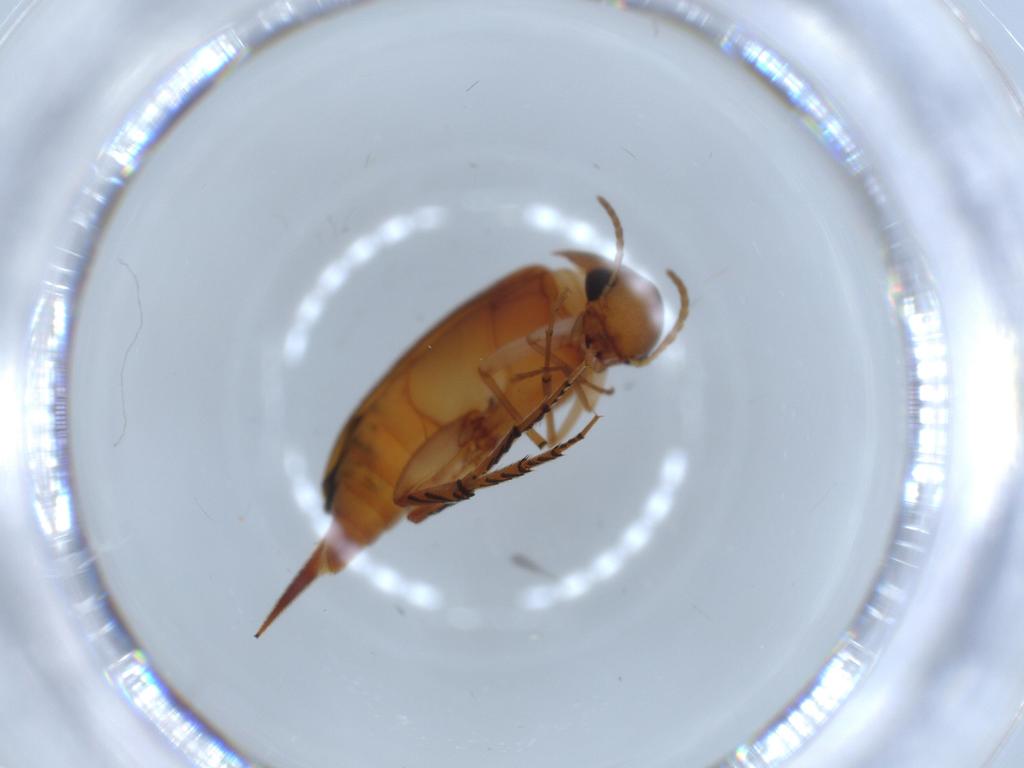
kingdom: Animalia
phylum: Arthropoda
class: Insecta
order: Coleoptera
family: Mordellidae
